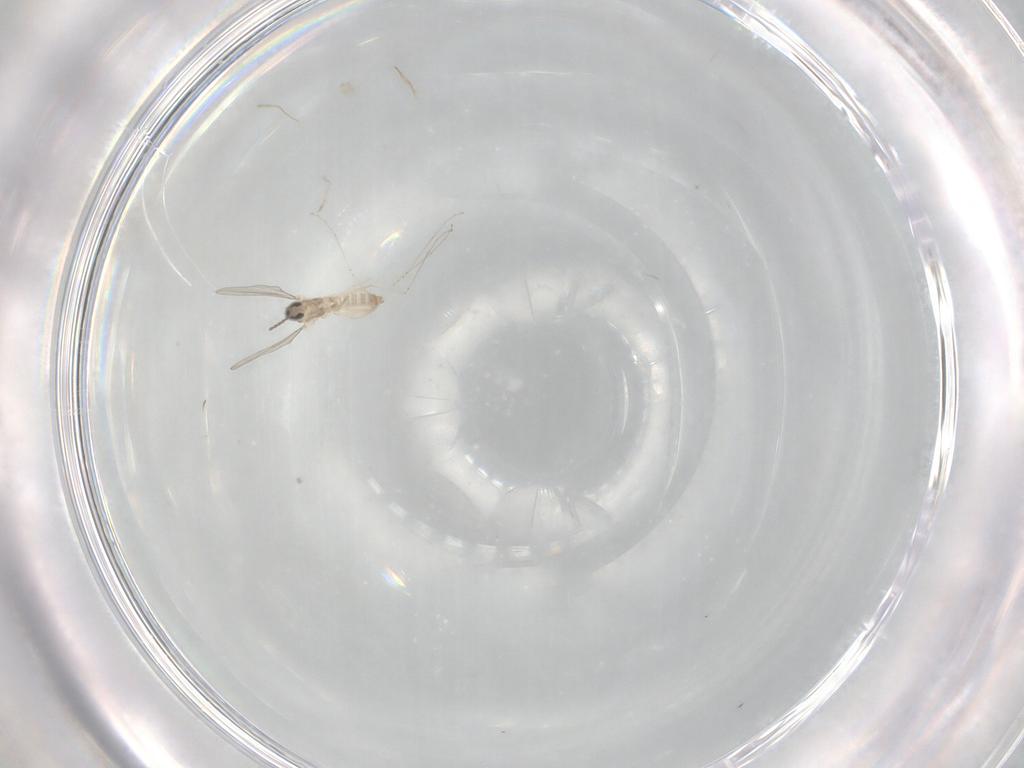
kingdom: Animalia
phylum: Arthropoda
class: Insecta
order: Diptera
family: Cecidomyiidae
